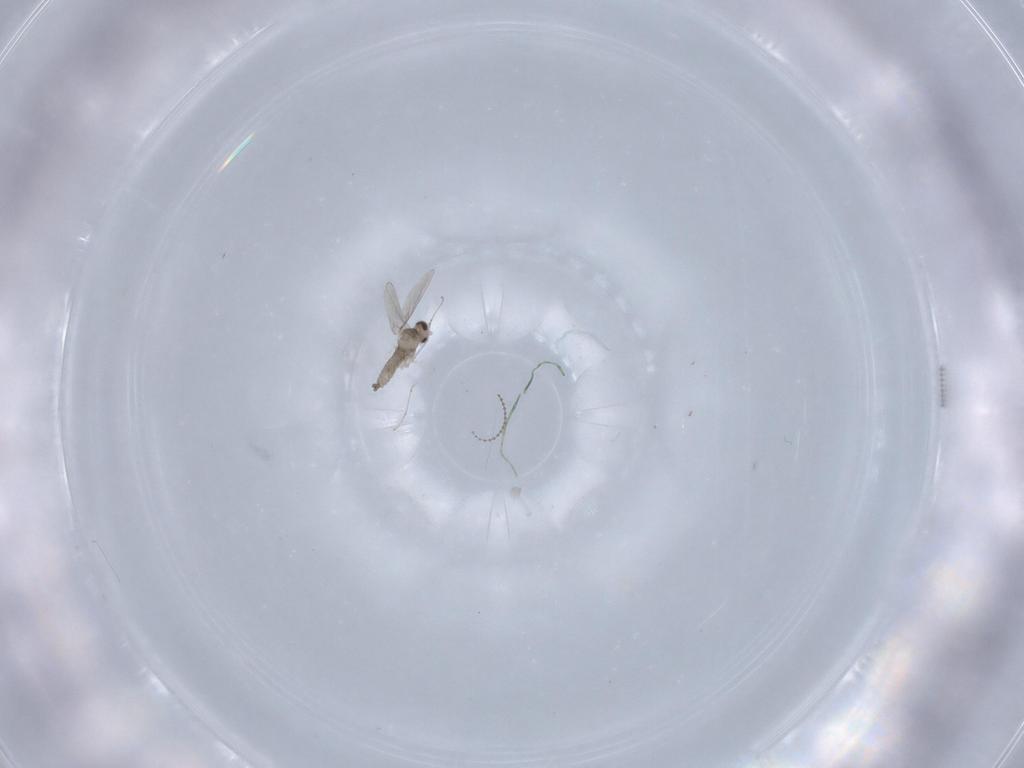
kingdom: Animalia
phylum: Arthropoda
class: Insecta
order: Diptera
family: Cecidomyiidae
